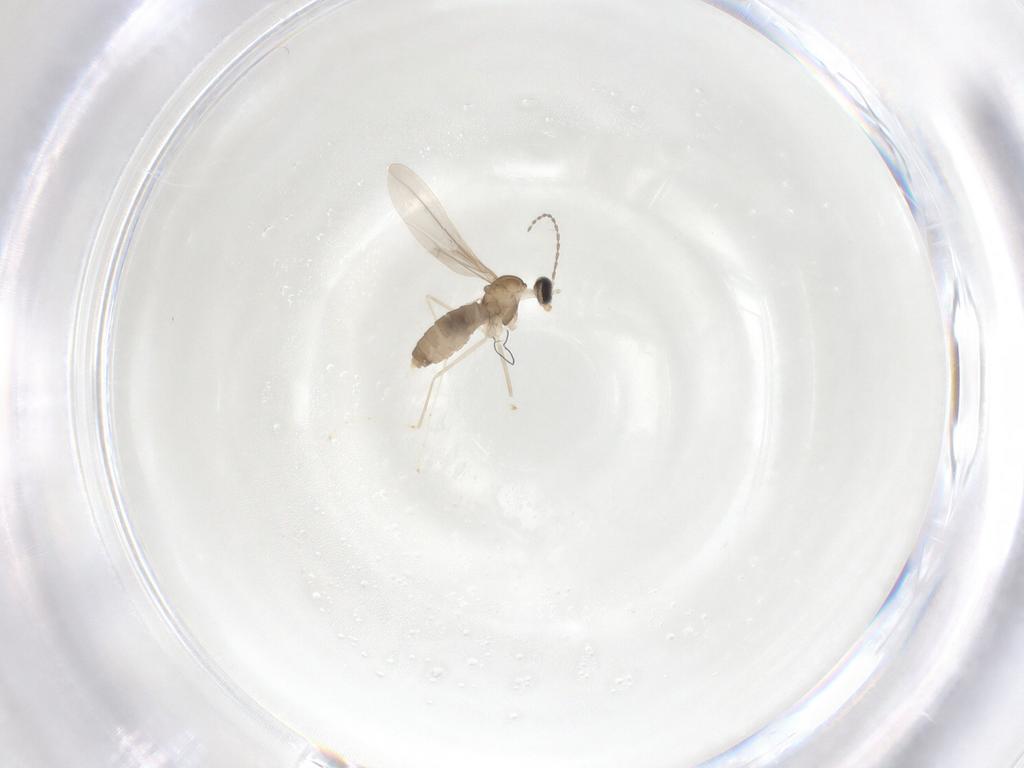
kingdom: Animalia
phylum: Arthropoda
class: Insecta
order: Diptera
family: Cecidomyiidae
